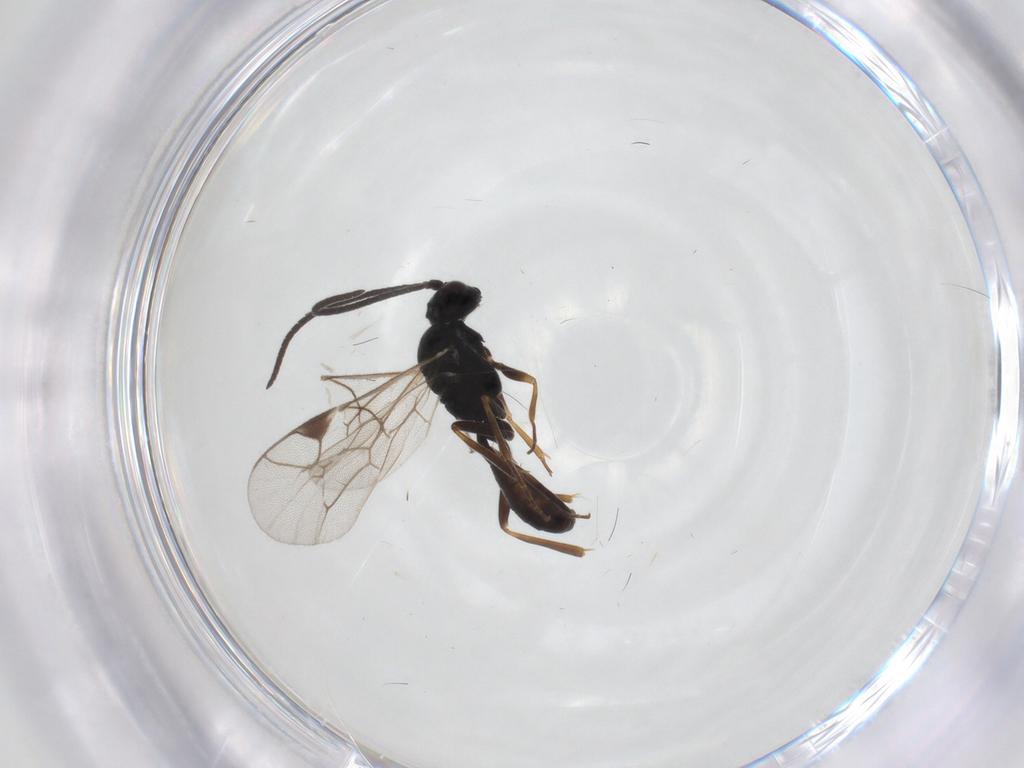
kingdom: Animalia
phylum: Arthropoda
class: Insecta
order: Hymenoptera
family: Ichneumonidae
